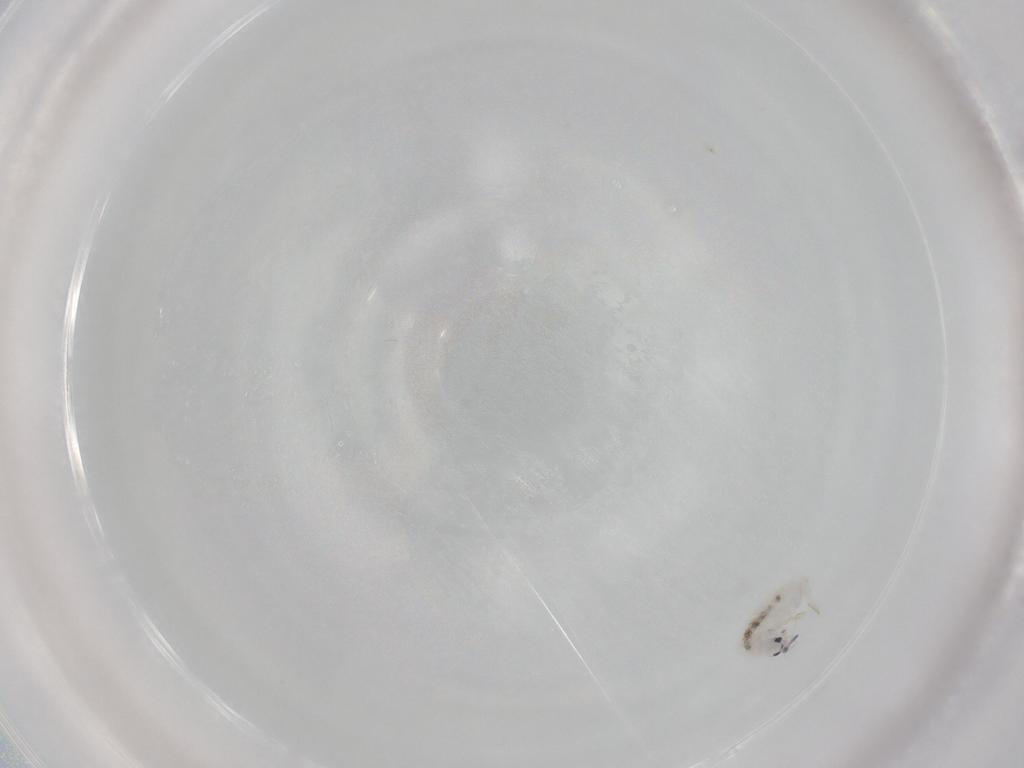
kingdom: Animalia
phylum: Arthropoda
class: Collembola
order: Entomobryomorpha
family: Entomobryidae
